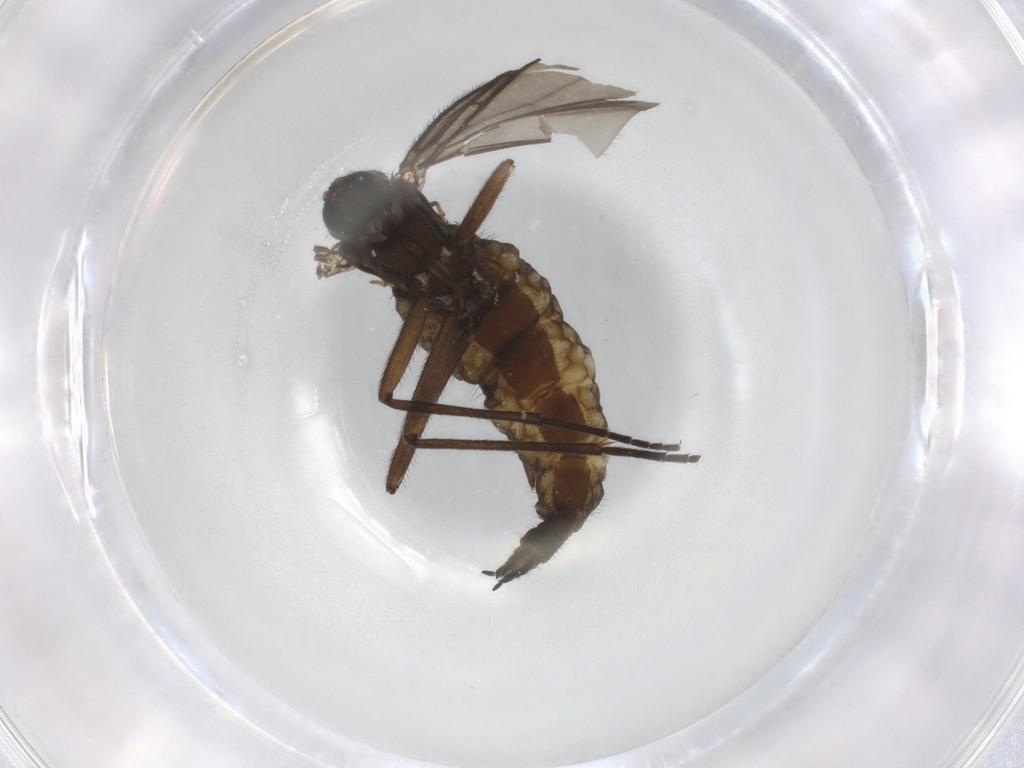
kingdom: Animalia
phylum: Arthropoda
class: Insecta
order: Diptera
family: Sciaridae
